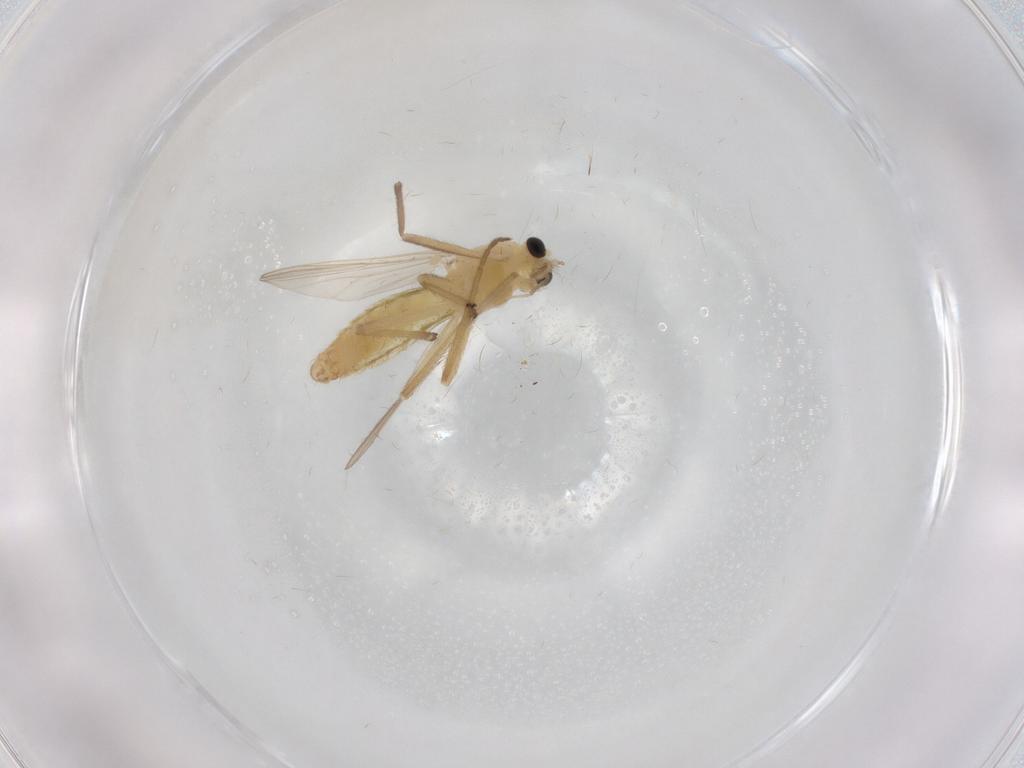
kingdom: Animalia
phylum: Arthropoda
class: Insecta
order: Diptera
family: Chironomidae
